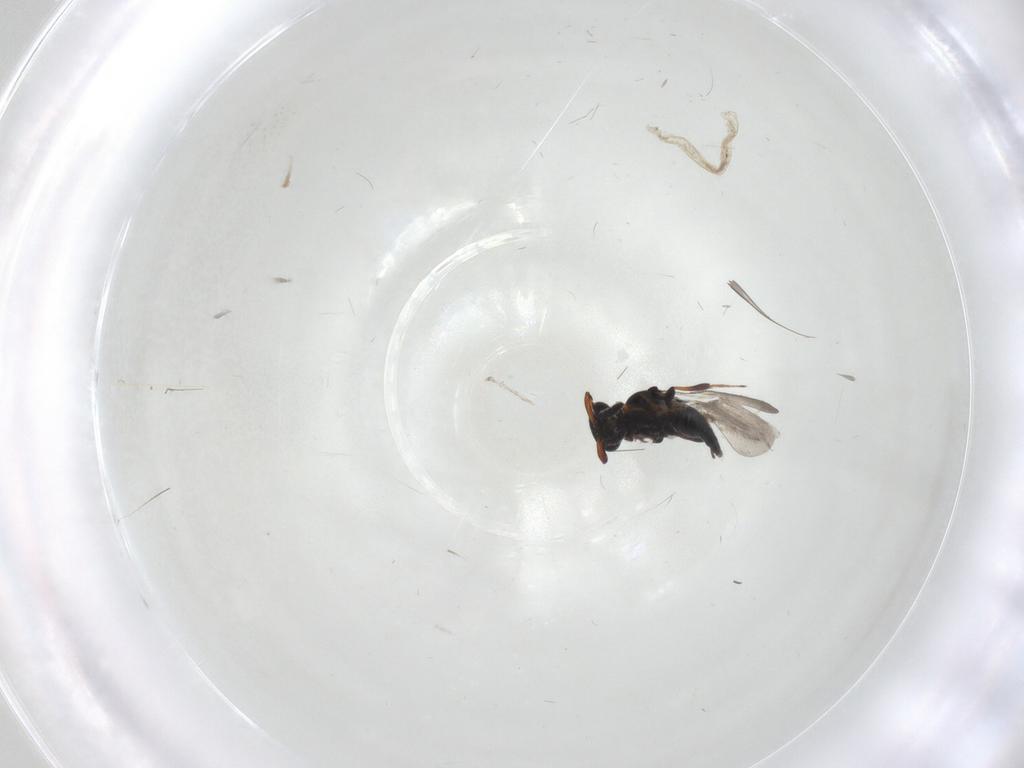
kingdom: Animalia
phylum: Arthropoda
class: Insecta
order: Hymenoptera
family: Platygastridae
